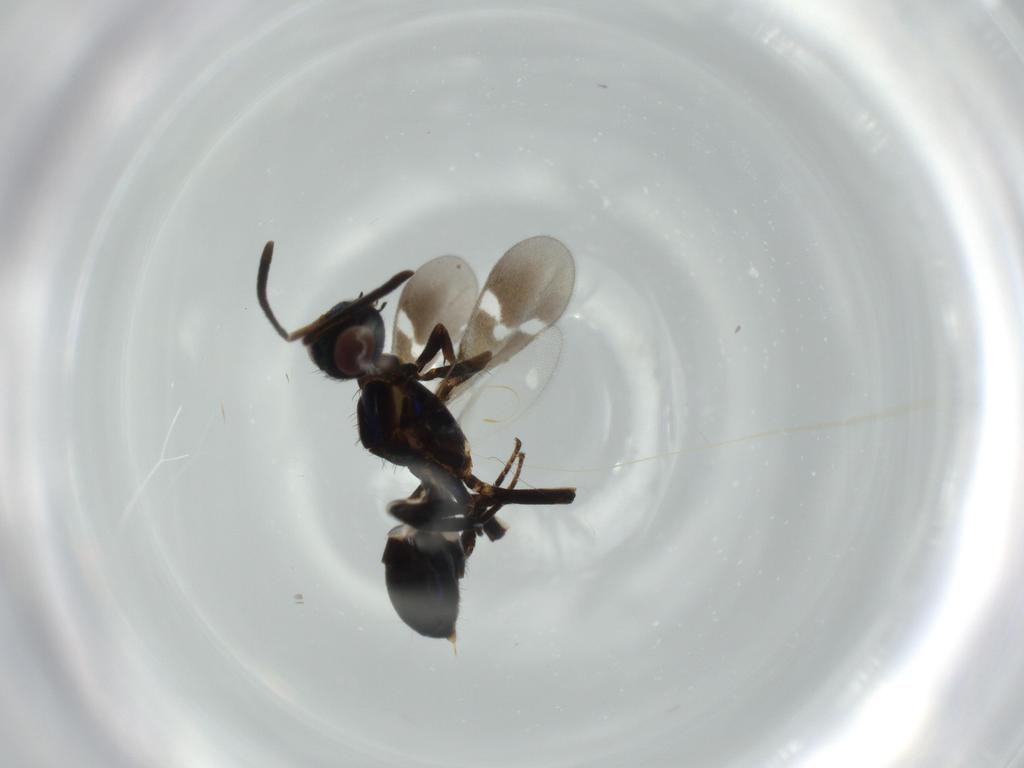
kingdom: Animalia
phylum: Arthropoda
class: Insecta
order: Hymenoptera
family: Eupelmidae
